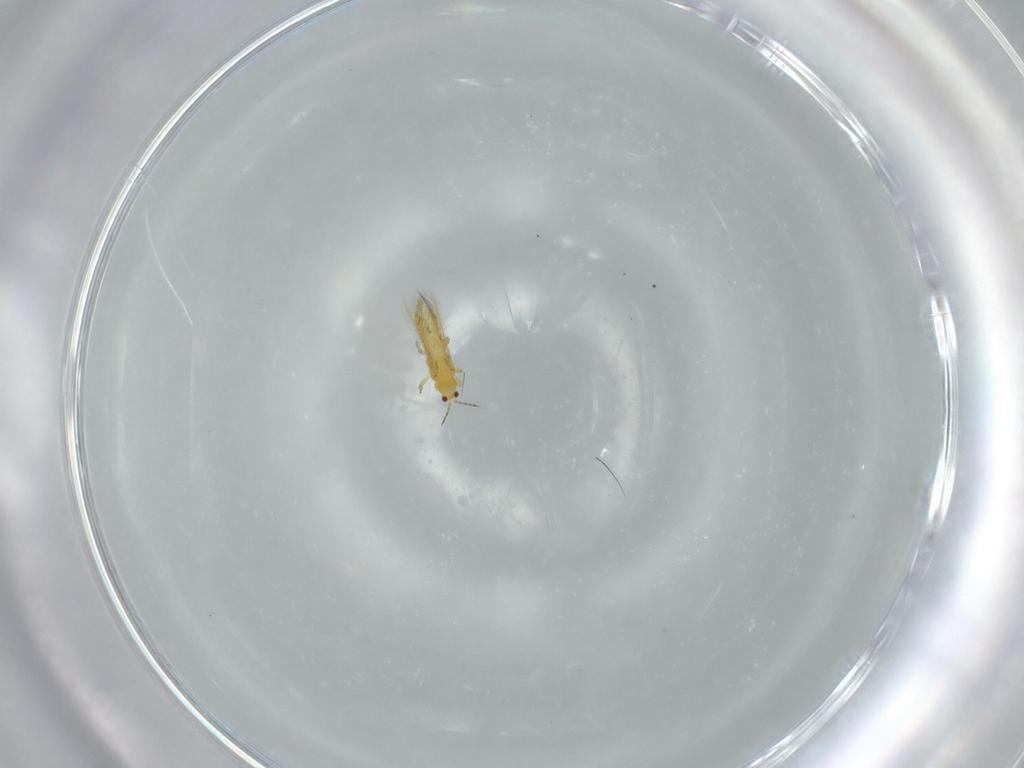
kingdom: Animalia
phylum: Arthropoda
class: Insecta
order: Thysanoptera
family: Thripidae
